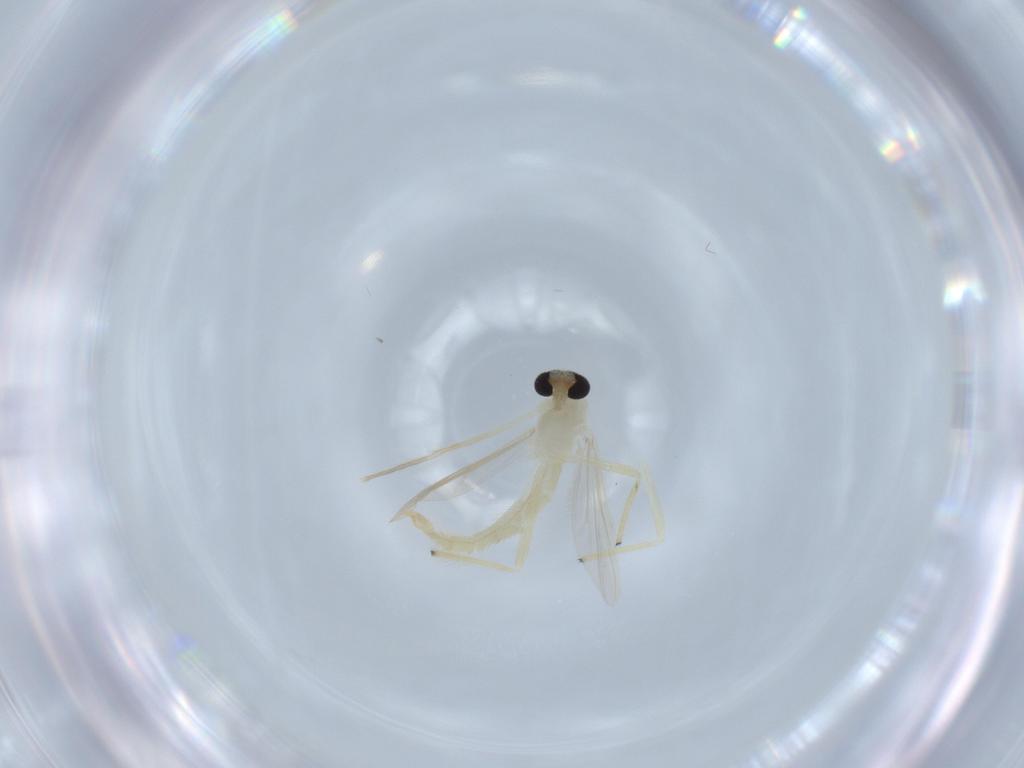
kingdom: Animalia
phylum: Arthropoda
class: Insecta
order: Diptera
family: Chironomidae
